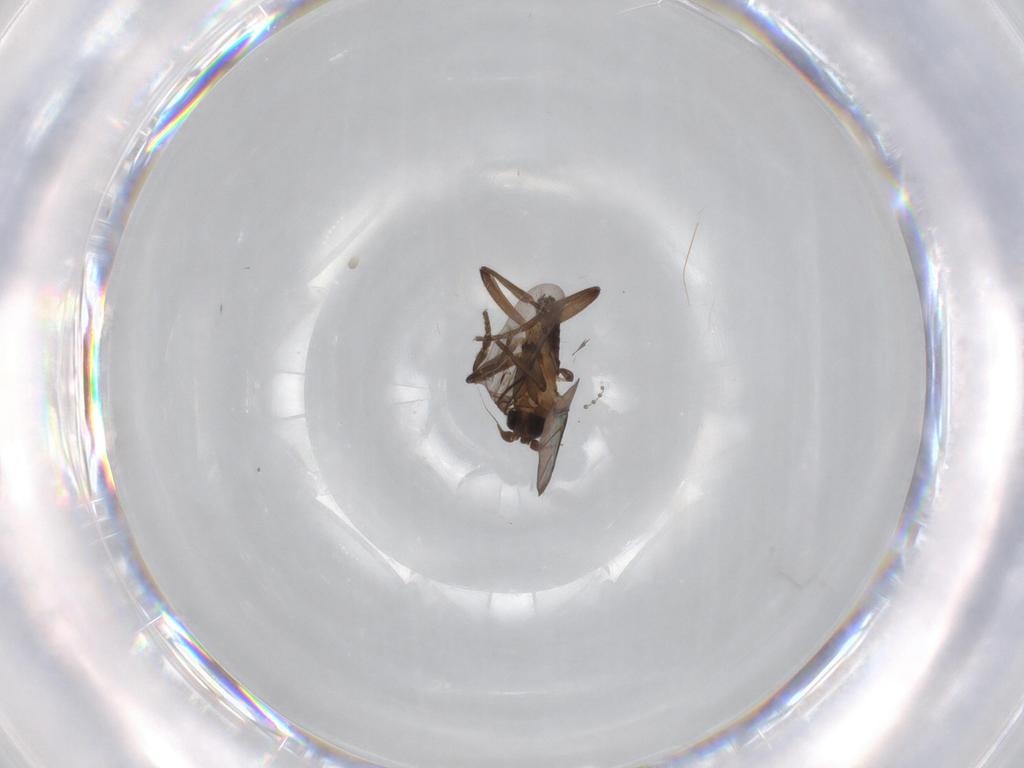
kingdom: Animalia
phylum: Arthropoda
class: Insecta
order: Diptera
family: Phoridae
